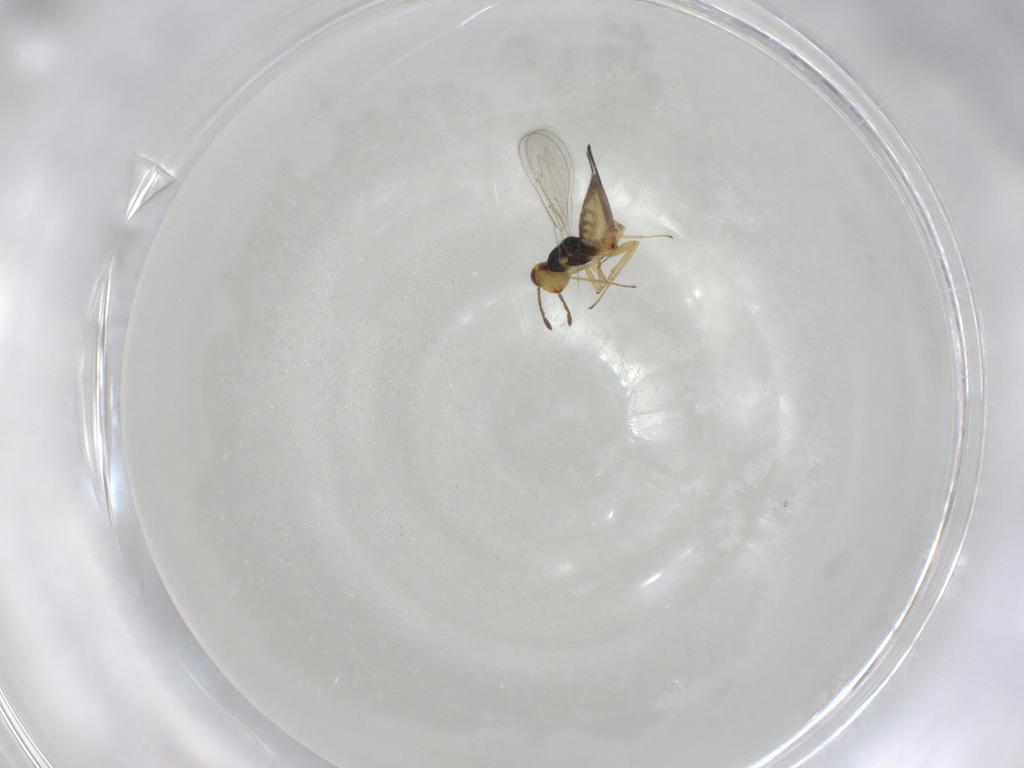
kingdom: Animalia
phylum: Arthropoda
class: Insecta
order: Hymenoptera
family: Eulophidae
